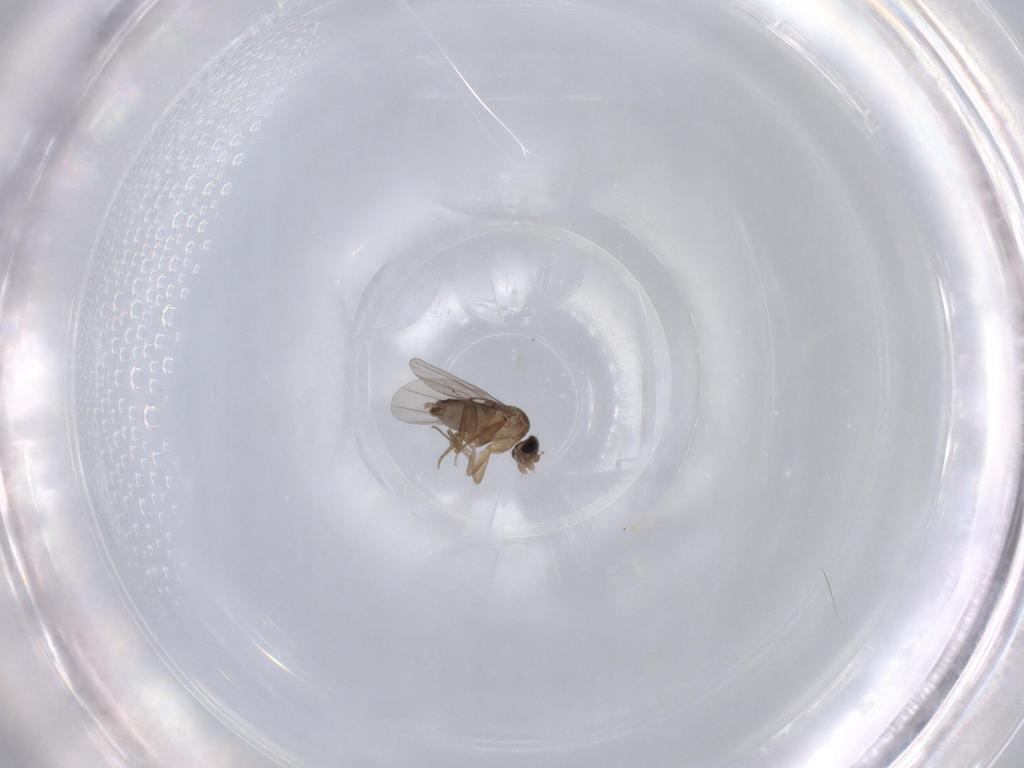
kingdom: Animalia
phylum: Arthropoda
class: Insecta
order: Diptera
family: Phoridae
